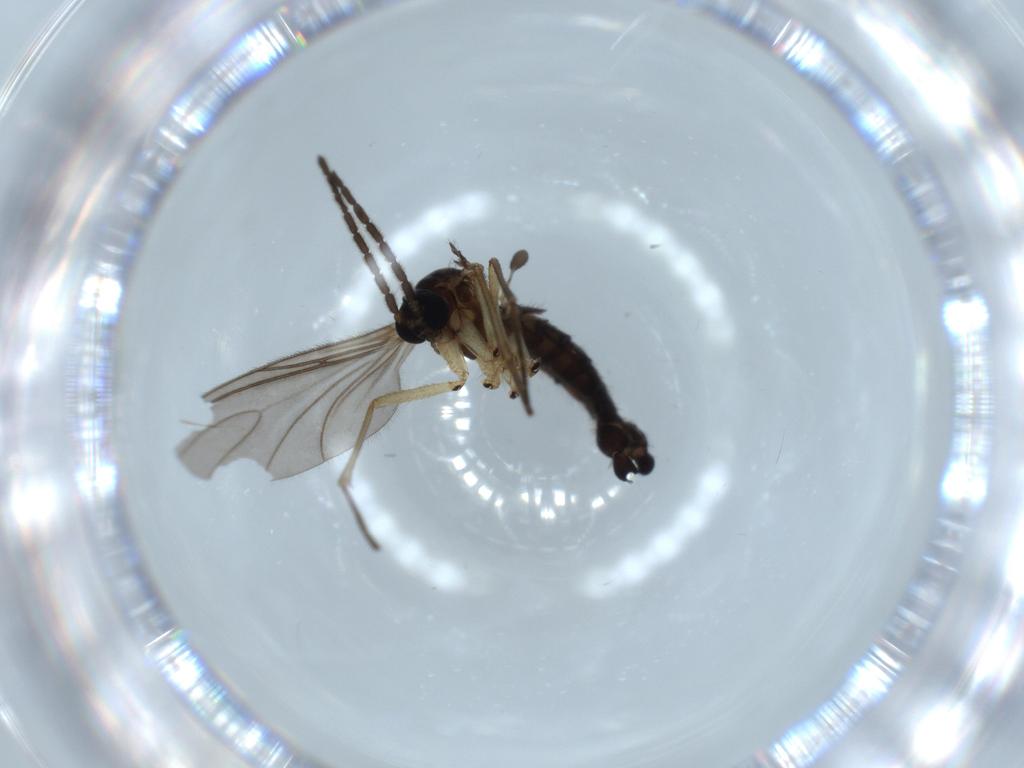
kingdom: Animalia
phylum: Arthropoda
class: Insecta
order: Diptera
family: Sciaridae
